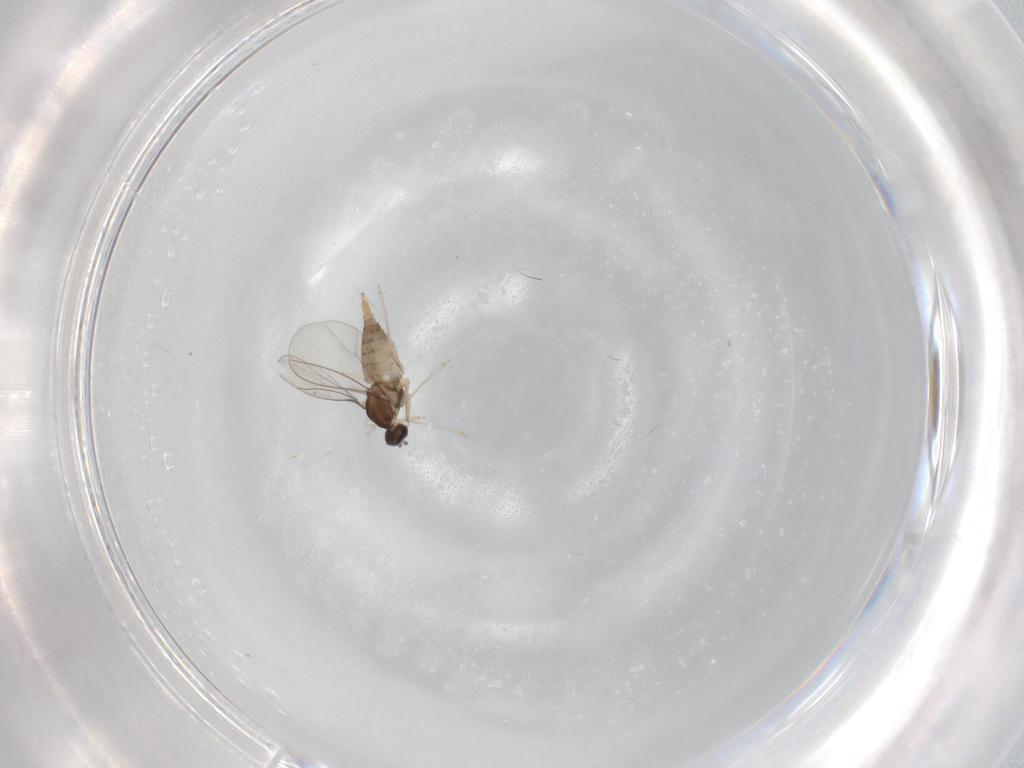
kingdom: Animalia
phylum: Arthropoda
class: Insecta
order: Diptera
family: Cecidomyiidae
